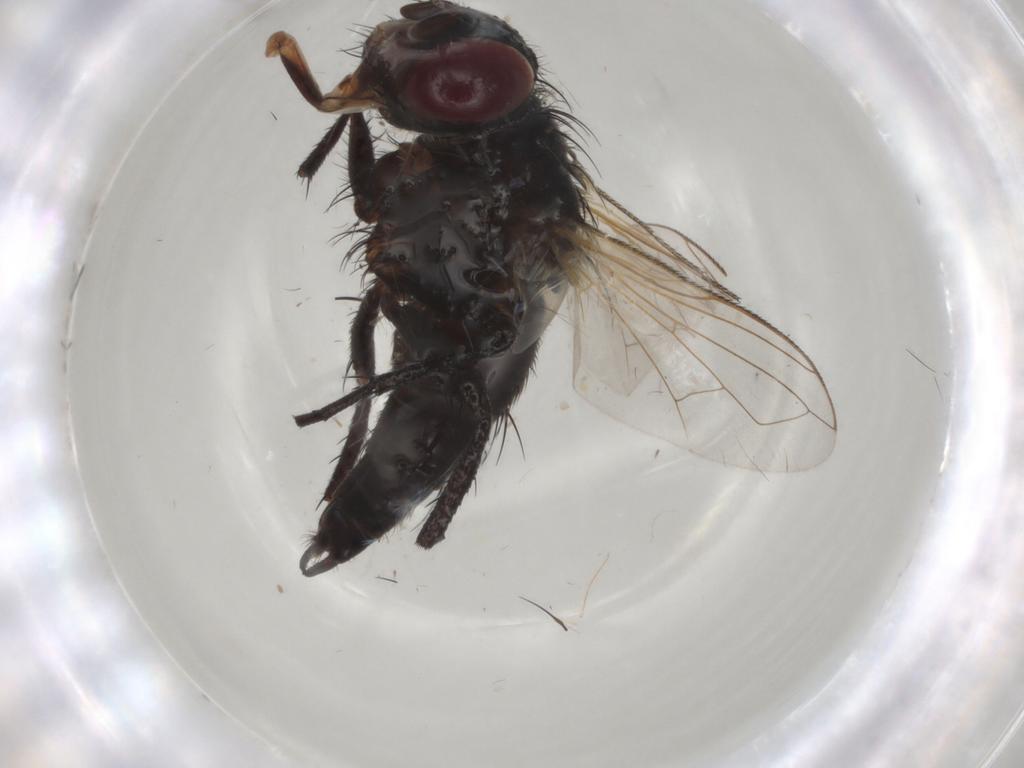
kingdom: Animalia
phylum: Arthropoda
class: Insecta
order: Diptera
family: Tachinidae
